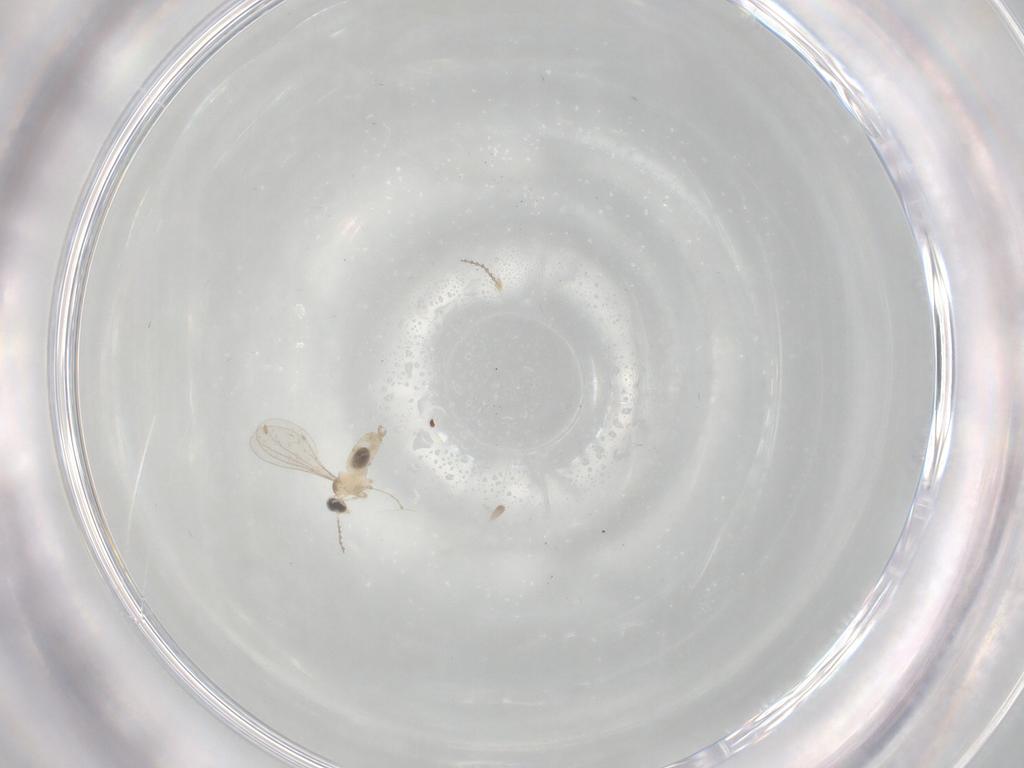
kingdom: Animalia
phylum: Arthropoda
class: Insecta
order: Diptera
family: Cecidomyiidae
